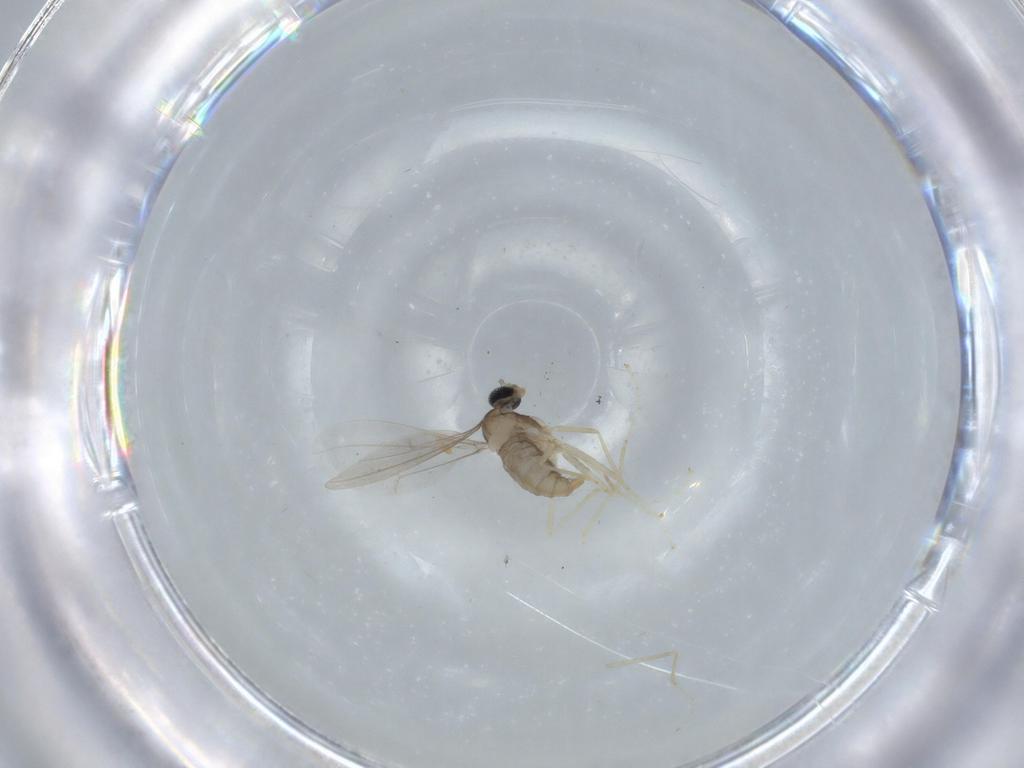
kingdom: Animalia
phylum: Arthropoda
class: Insecta
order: Diptera
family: Cecidomyiidae
